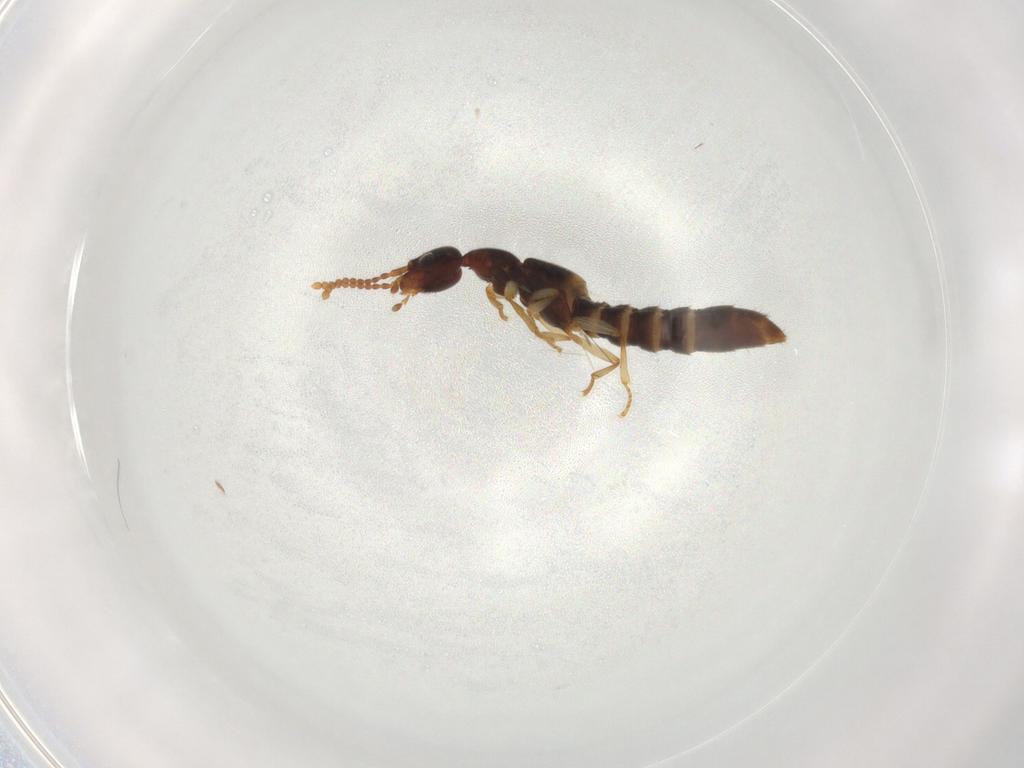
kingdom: Animalia
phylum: Arthropoda
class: Insecta
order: Coleoptera
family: Staphylinidae
